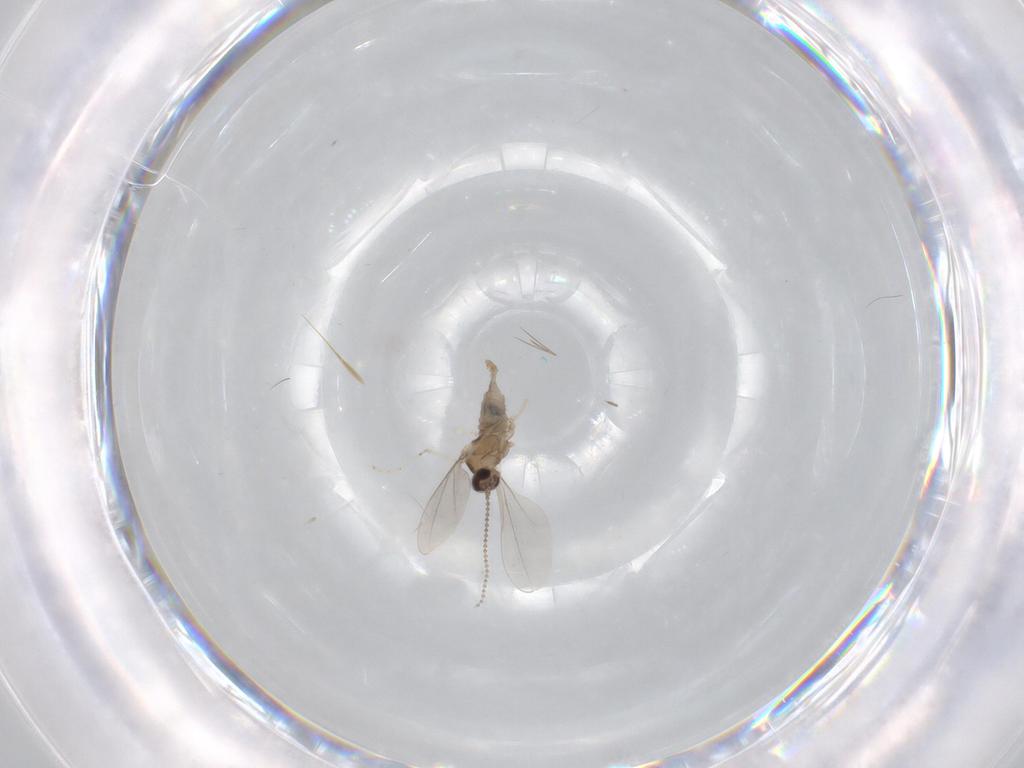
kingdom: Animalia
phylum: Arthropoda
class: Insecta
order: Diptera
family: Cecidomyiidae
